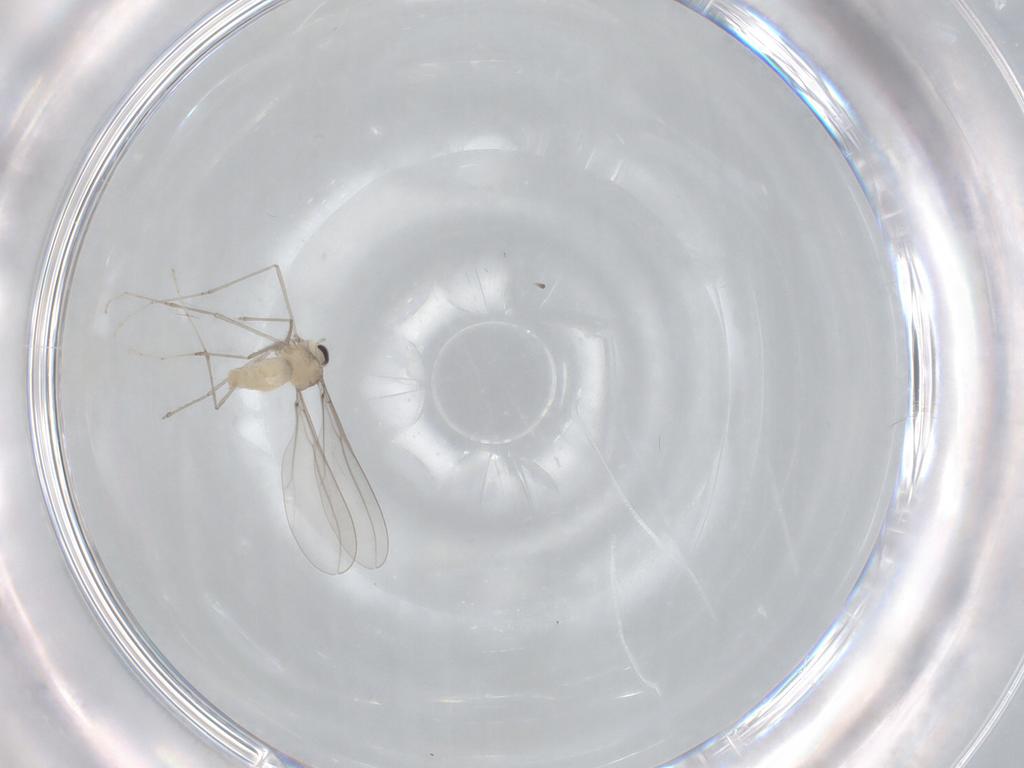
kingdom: Animalia
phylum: Arthropoda
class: Insecta
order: Diptera
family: Cecidomyiidae
